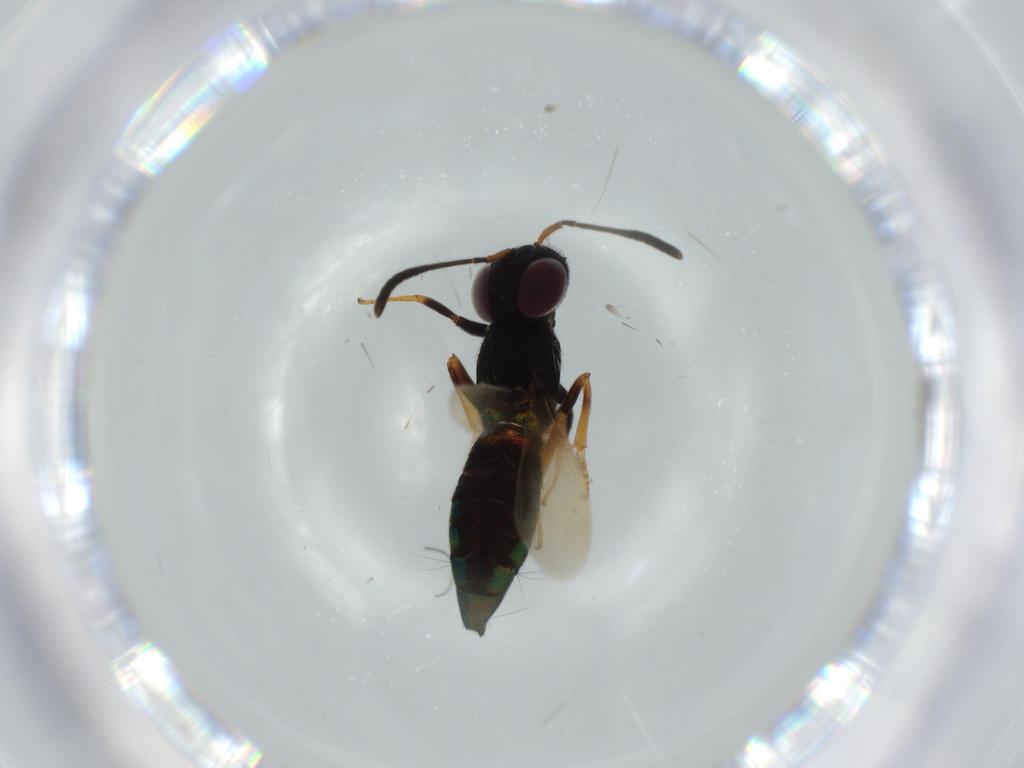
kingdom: Animalia
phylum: Arthropoda
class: Insecta
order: Hymenoptera
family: Eupelmidae
